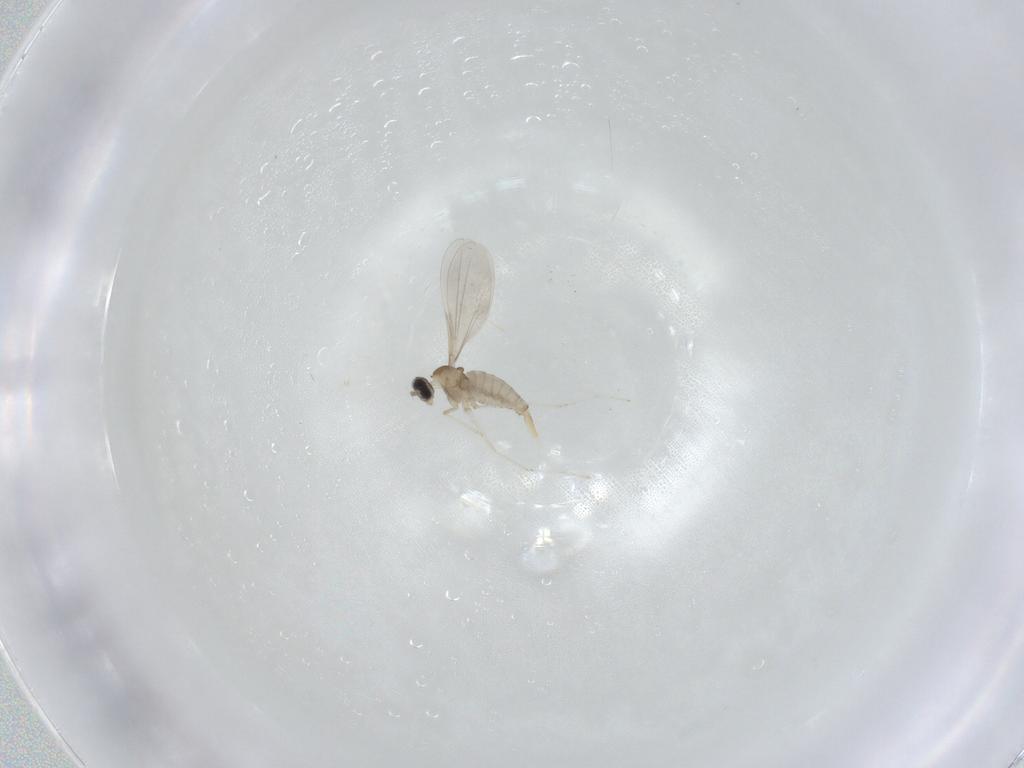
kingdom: Animalia
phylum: Arthropoda
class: Insecta
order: Diptera
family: Cecidomyiidae
